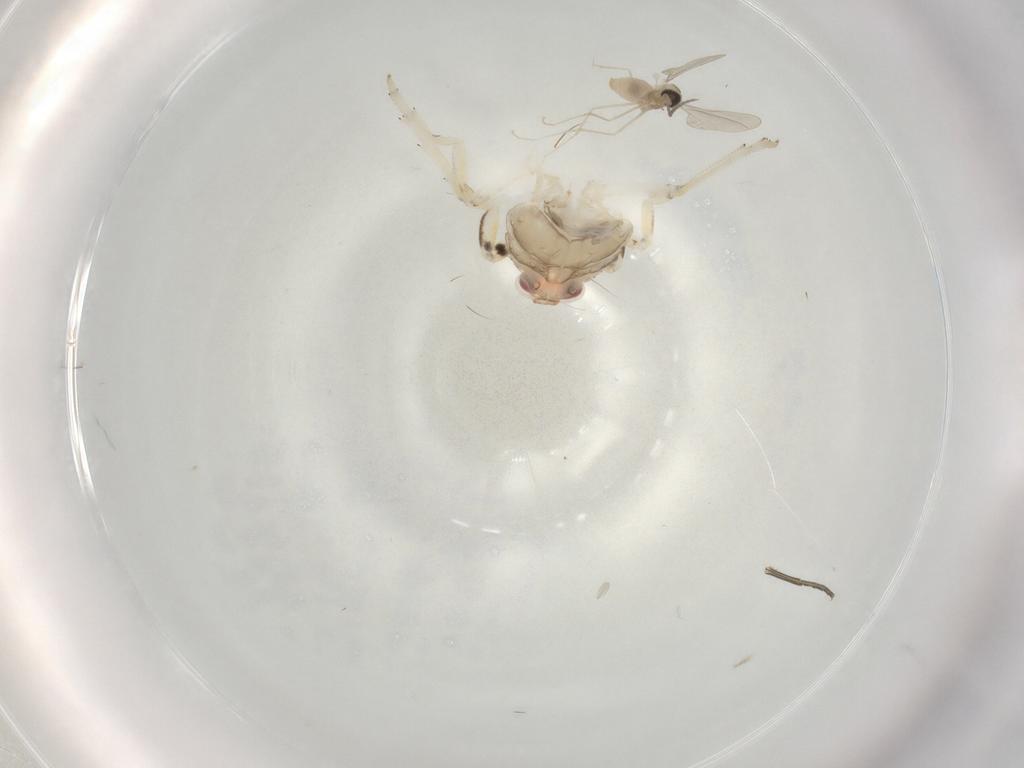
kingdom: Animalia
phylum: Arthropoda
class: Insecta
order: Hemiptera
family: Issidae
